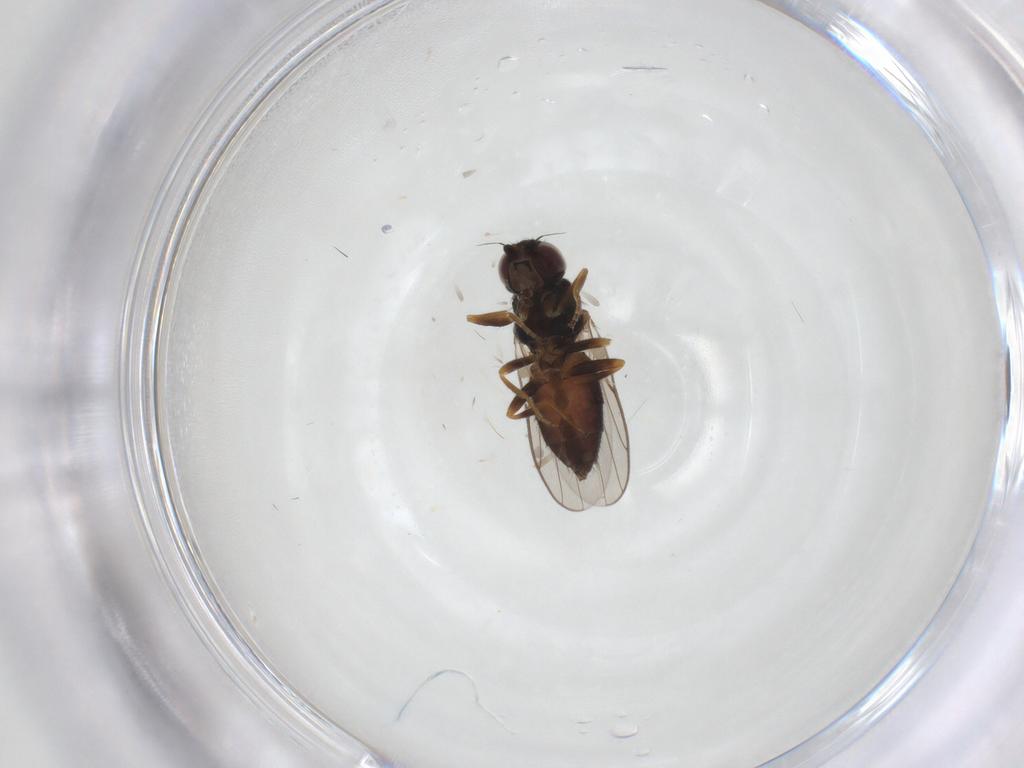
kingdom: Animalia
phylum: Arthropoda
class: Insecta
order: Diptera
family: Chloropidae
